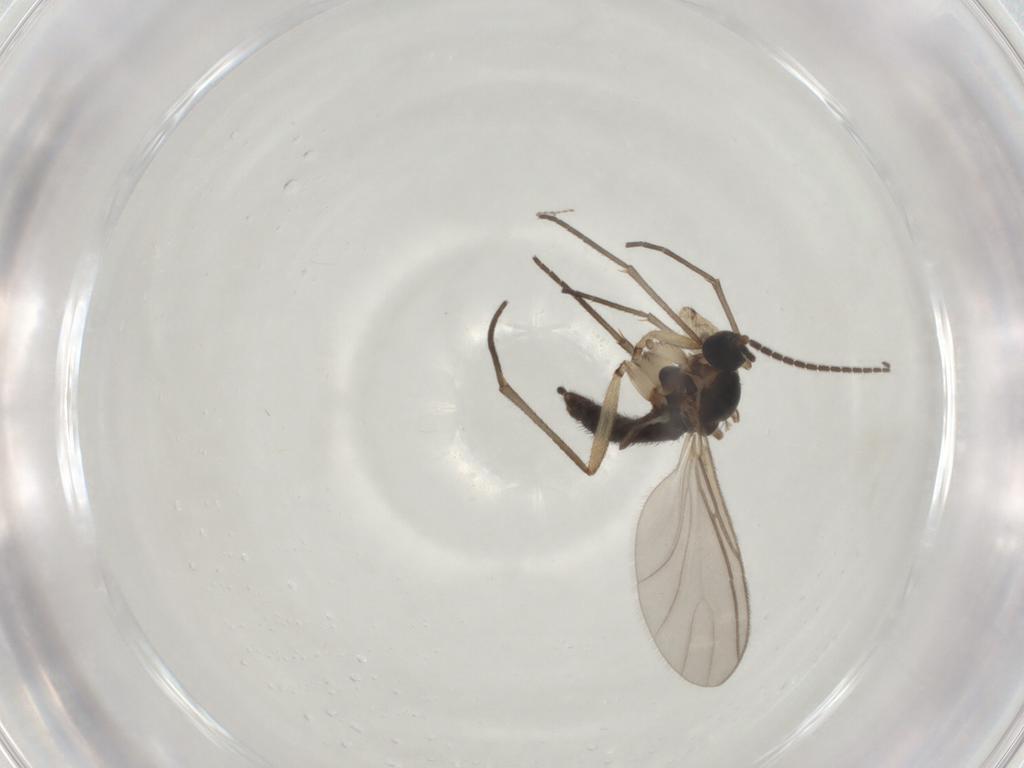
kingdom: Animalia
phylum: Arthropoda
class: Insecta
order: Diptera
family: Sciaridae
